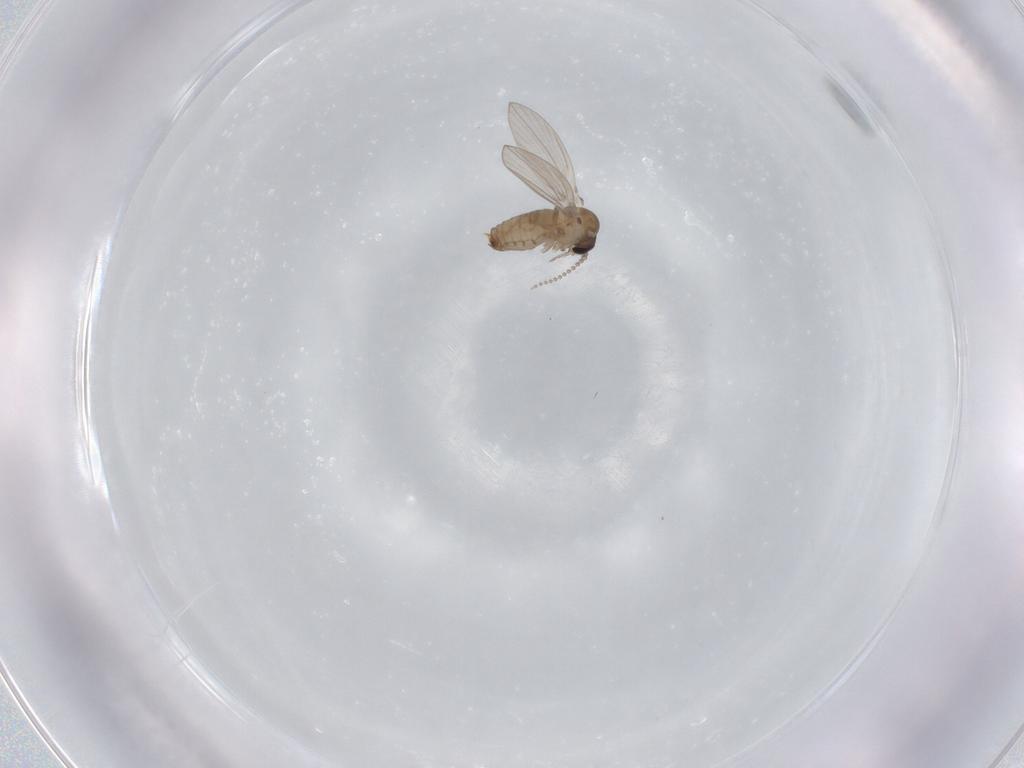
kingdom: Animalia
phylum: Arthropoda
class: Insecta
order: Diptera
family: Psychodidae
